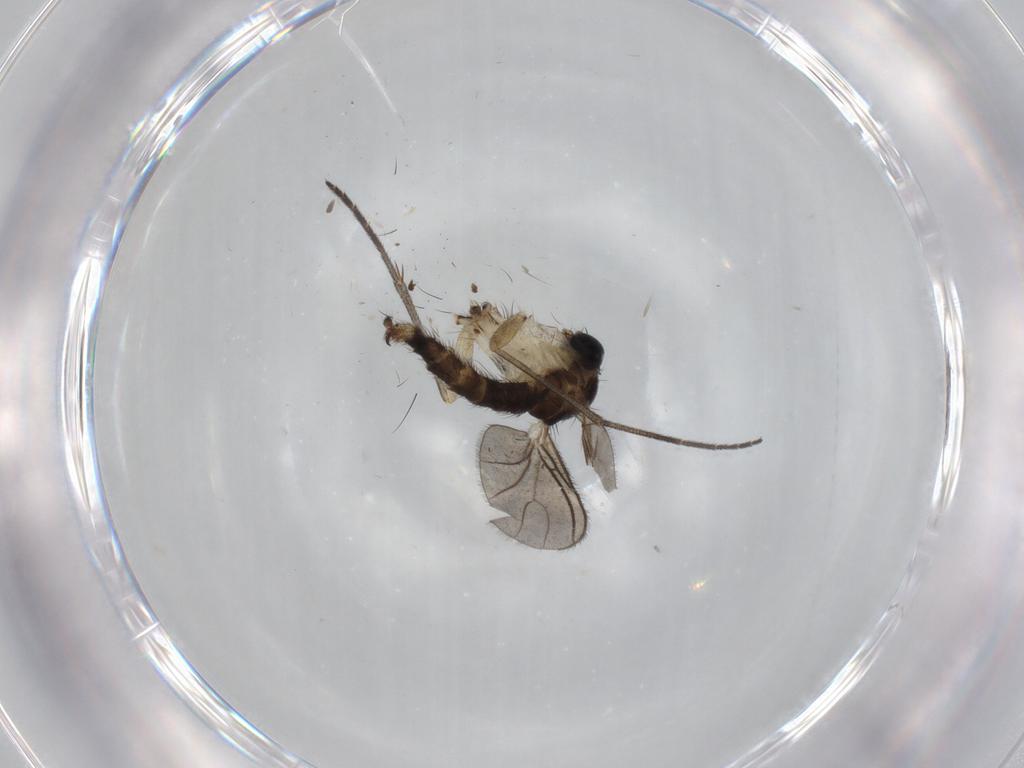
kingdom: Animalia
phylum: Arthropoda
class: Insecta
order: Diptera
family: Sciaridae
